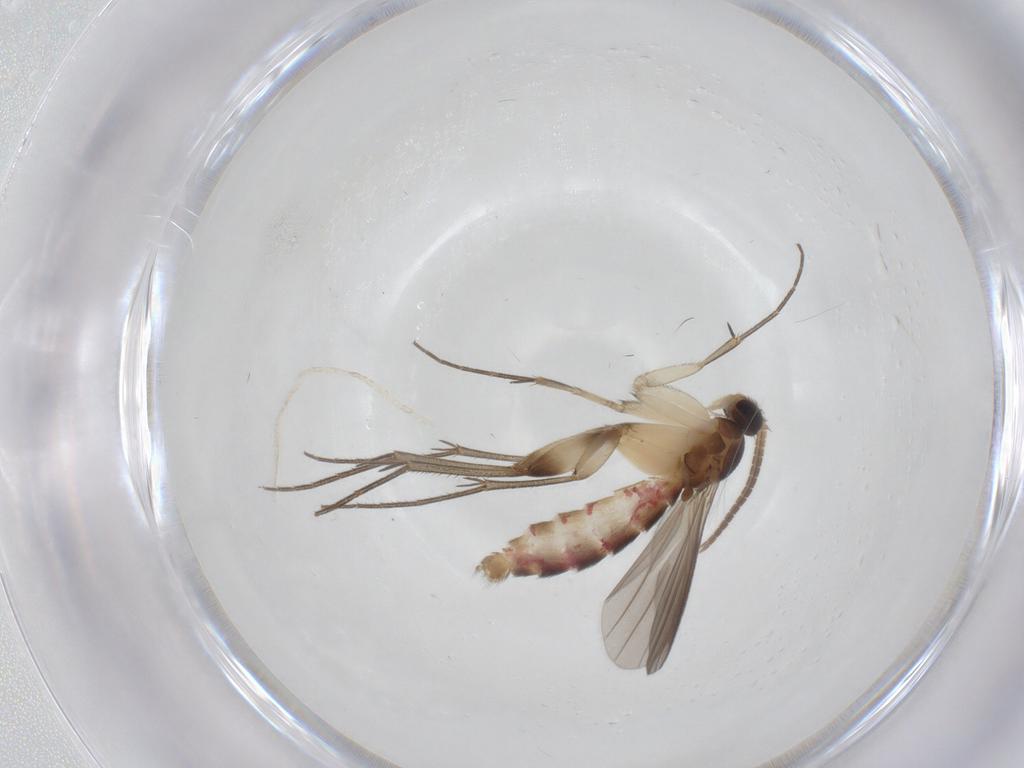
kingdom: Animalia
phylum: Arthropoda
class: Insecta
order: Diptera
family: Mycetophilidae
